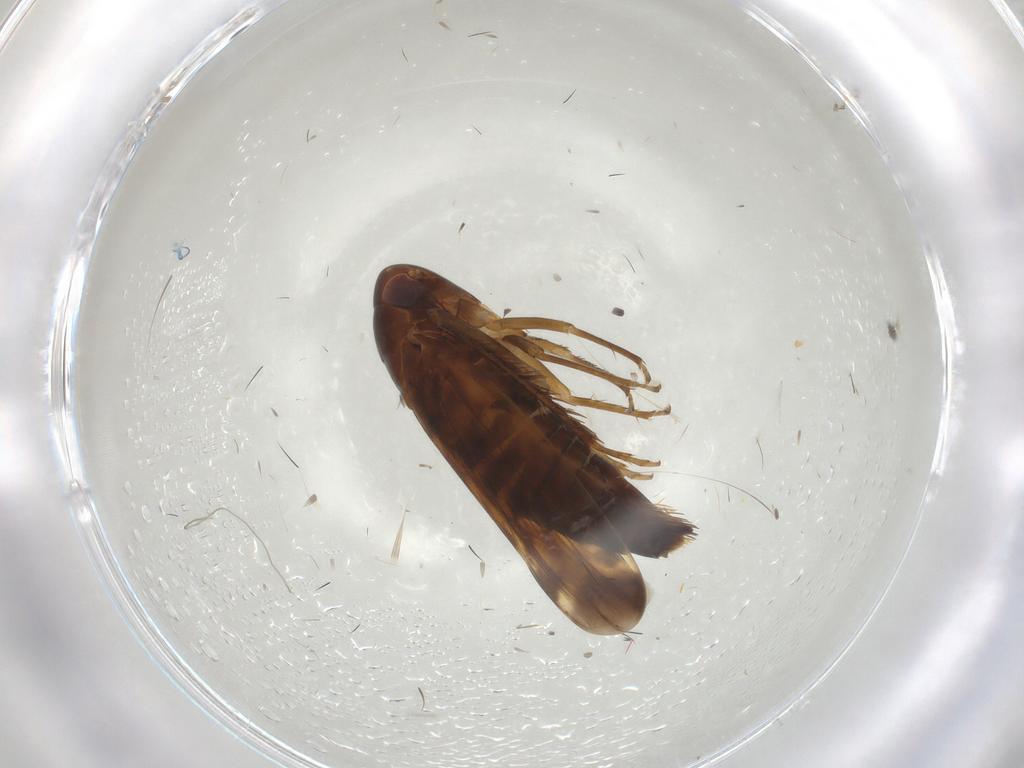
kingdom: Animalia
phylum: Arthropoda
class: Insecta
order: Hemiptera
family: Cicadellidae
